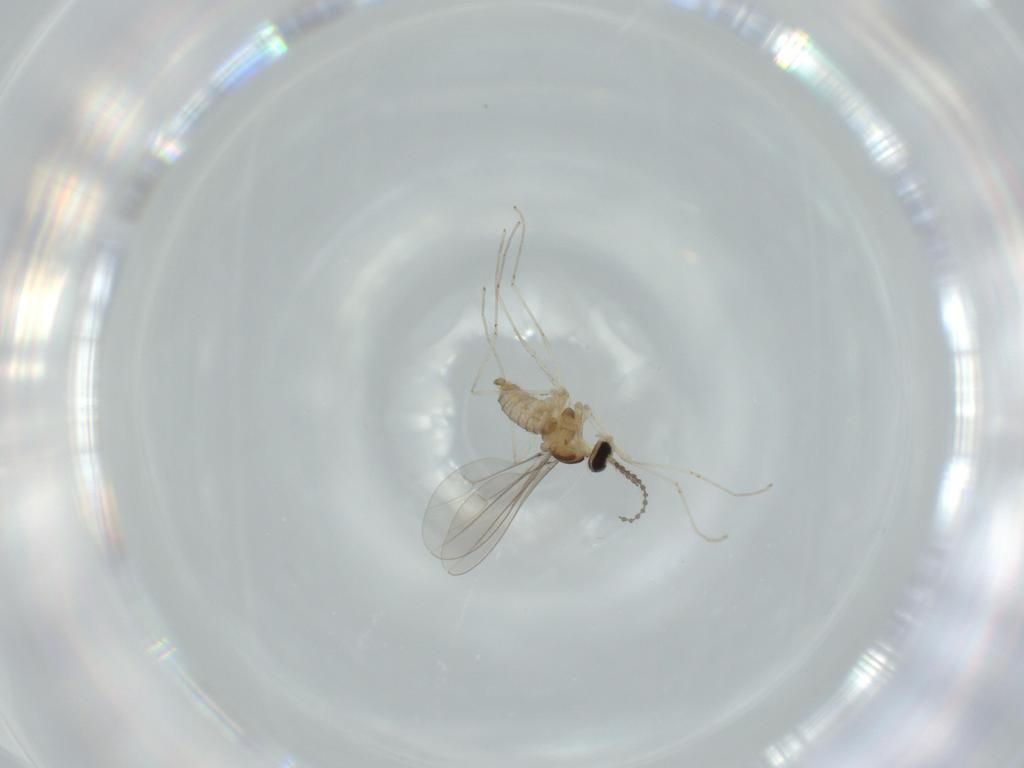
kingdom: Animalia
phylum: Arthropoda
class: Insecta
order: Diptera
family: Cecidomyiidae
